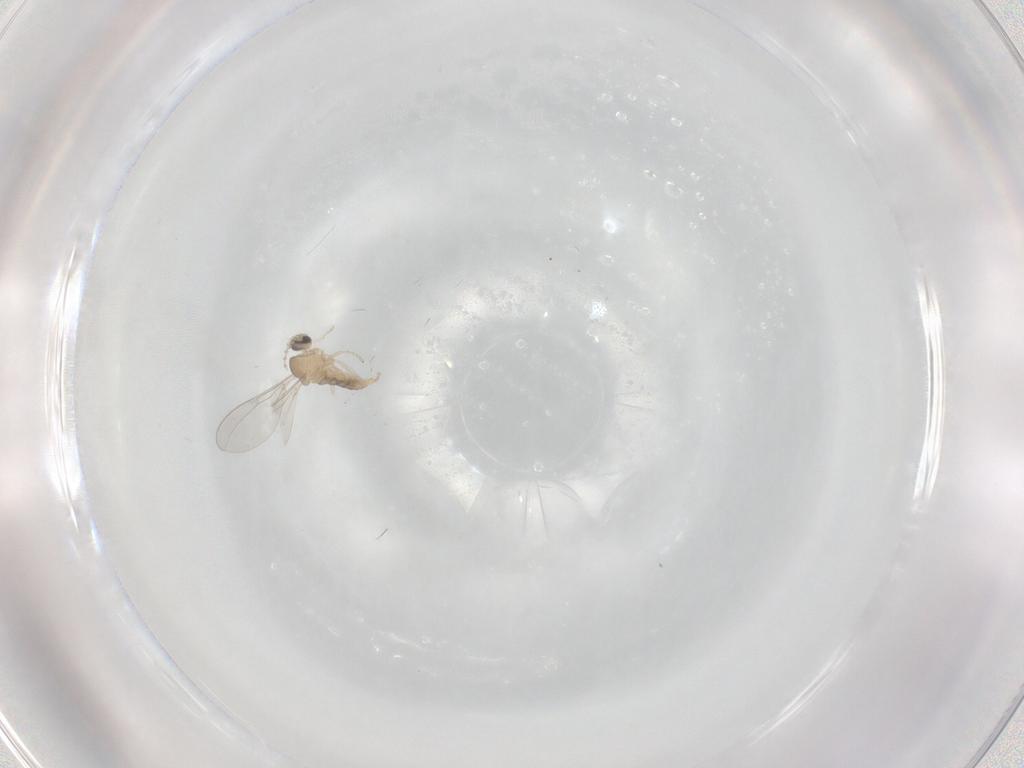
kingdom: Animalia
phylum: Arthropoda
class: Insecta
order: Diptera
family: Cecidomyiidae
